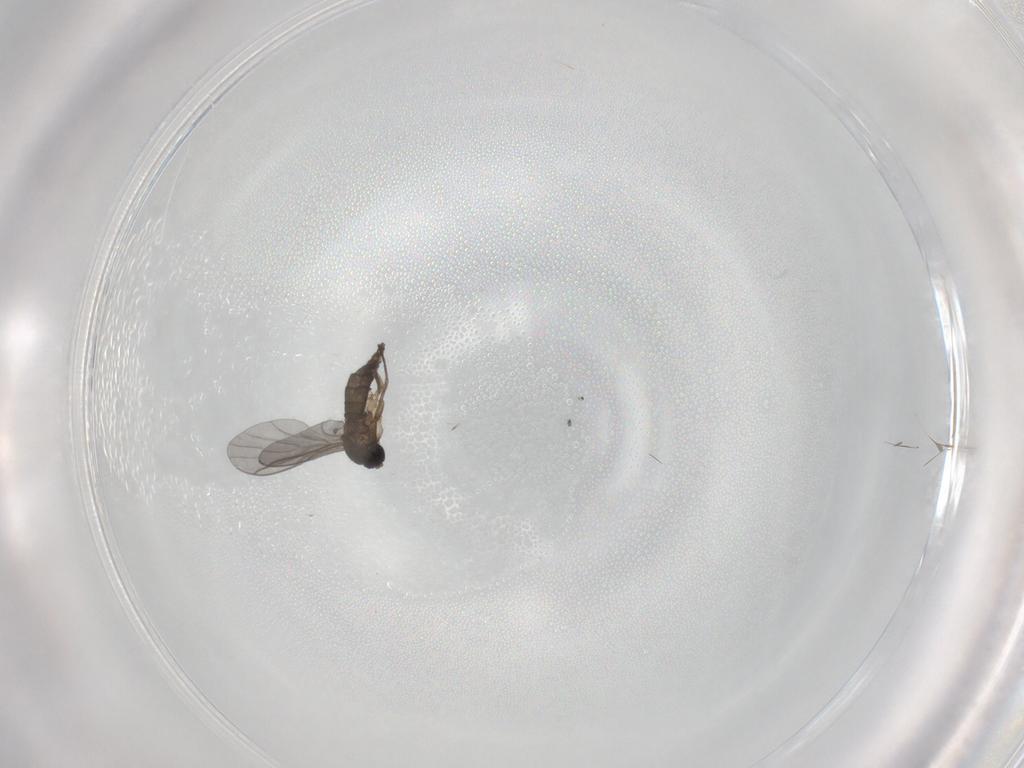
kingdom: Animalia
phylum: Arthropoda
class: Insecta
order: Diptera
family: Sciaridae
